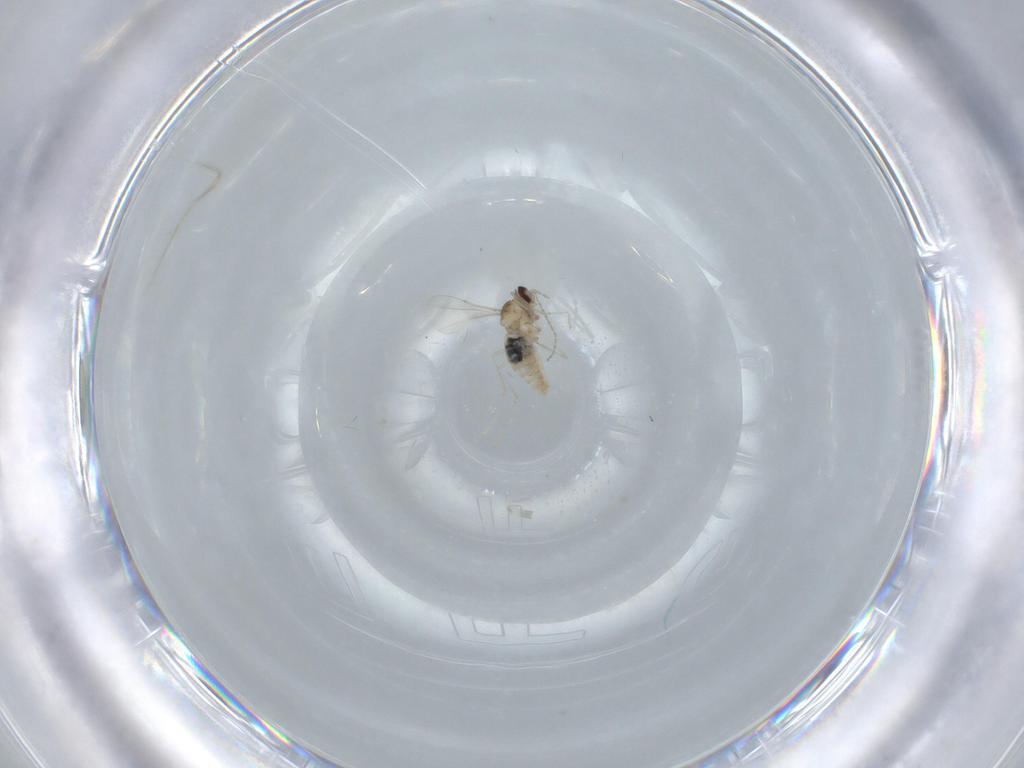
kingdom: Animalia
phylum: Arthropoda
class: Insecta
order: Diptera
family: Cecidomyiidae
